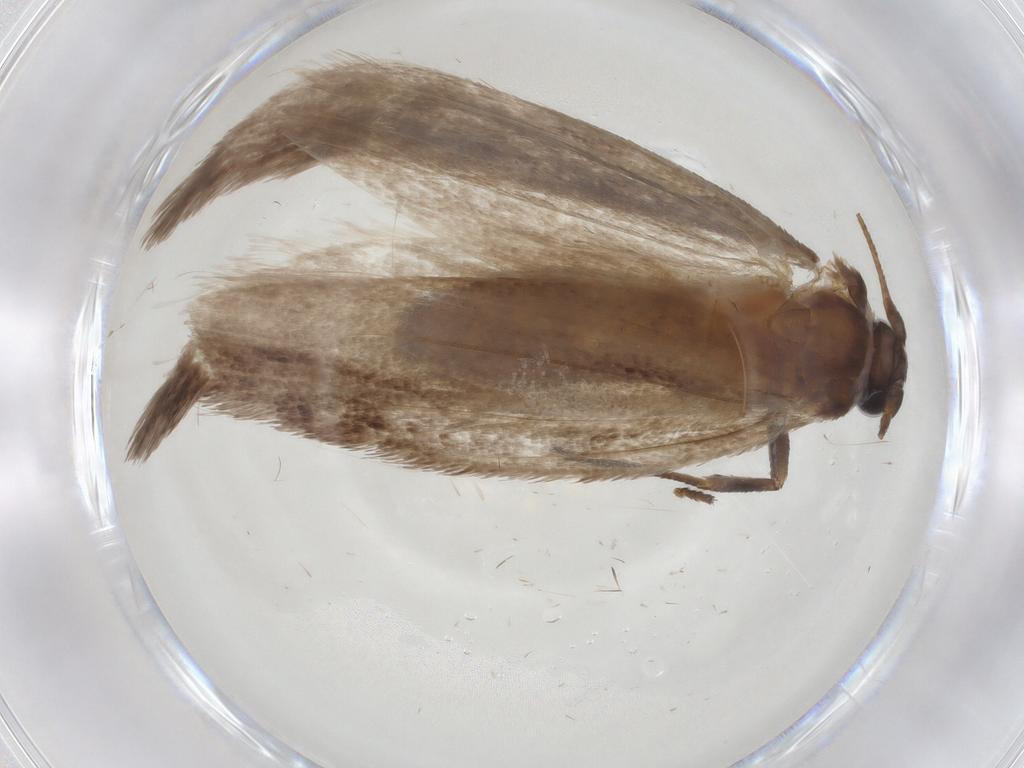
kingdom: Animalia
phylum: Arthropoda
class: Insecta
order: Lepidoptera
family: Roeslerstammiidae
